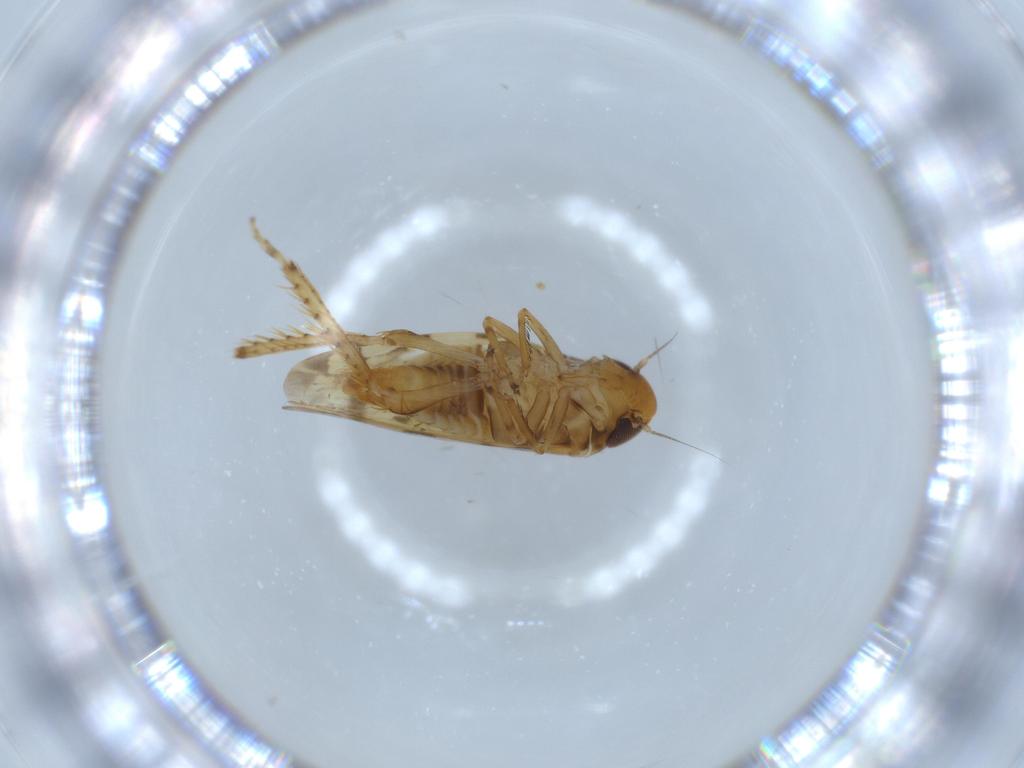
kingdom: Animalia
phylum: Arthropoda
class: Insecta
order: Hemiptera
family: Cicadellidae
